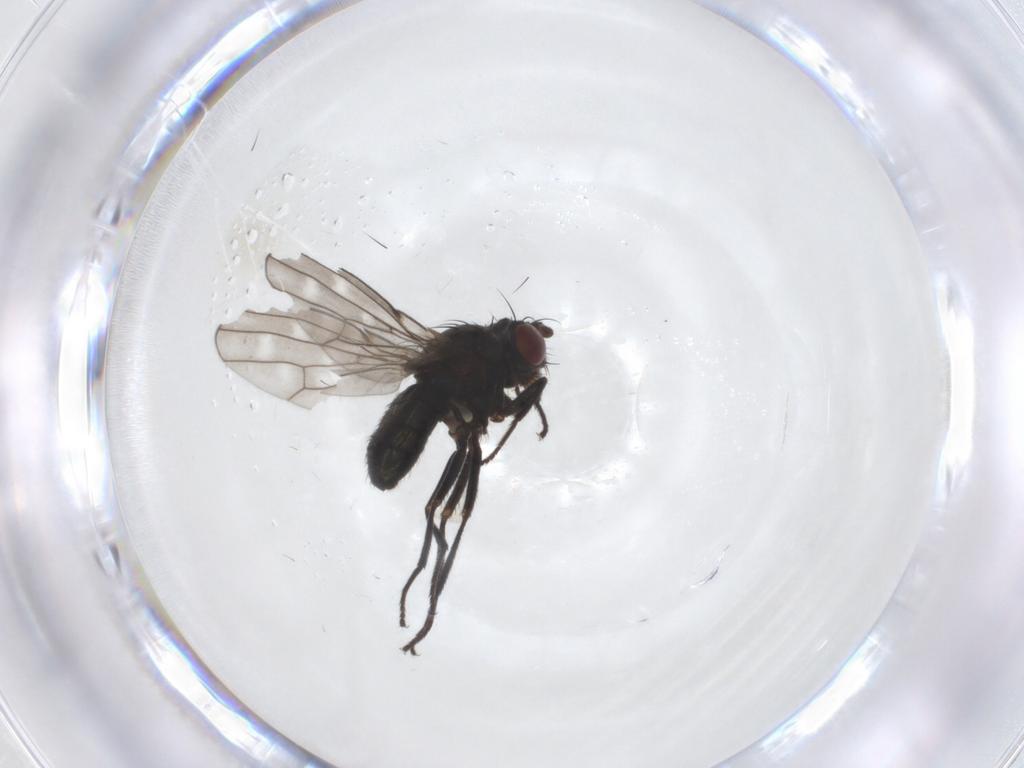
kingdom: Animalia
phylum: Arthropoda
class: Insecta
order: Diptera
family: Ephydridae
